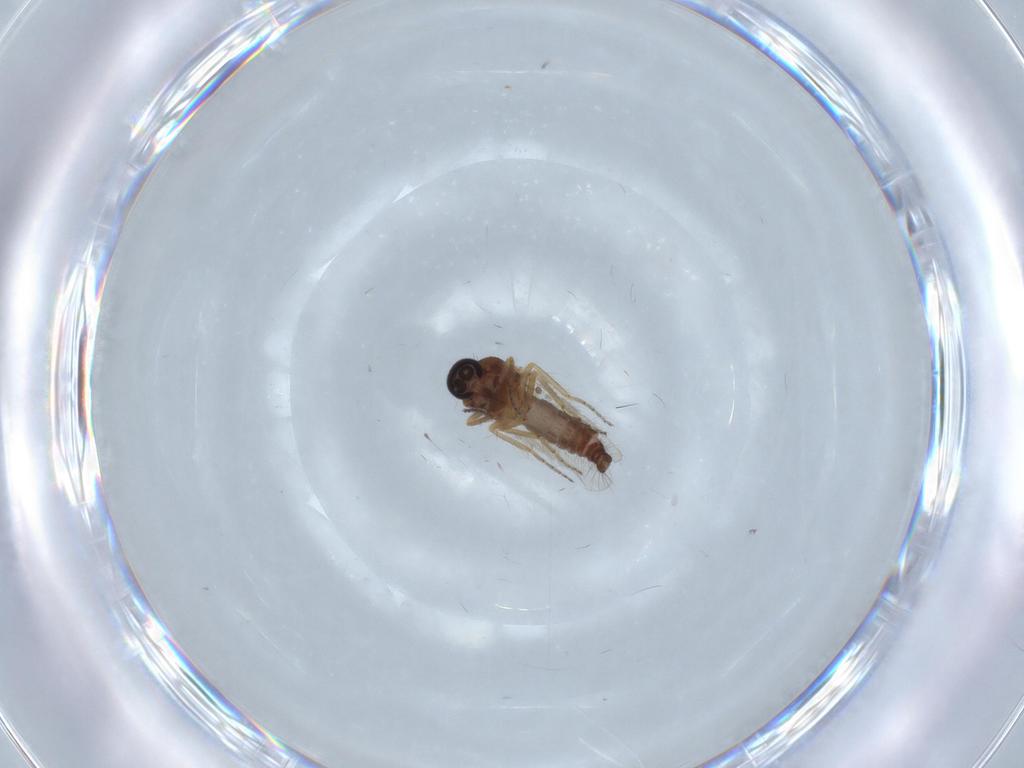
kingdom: Animalia
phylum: Arthropoda
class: Insecta
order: Diptera
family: Ceratopogonidae
